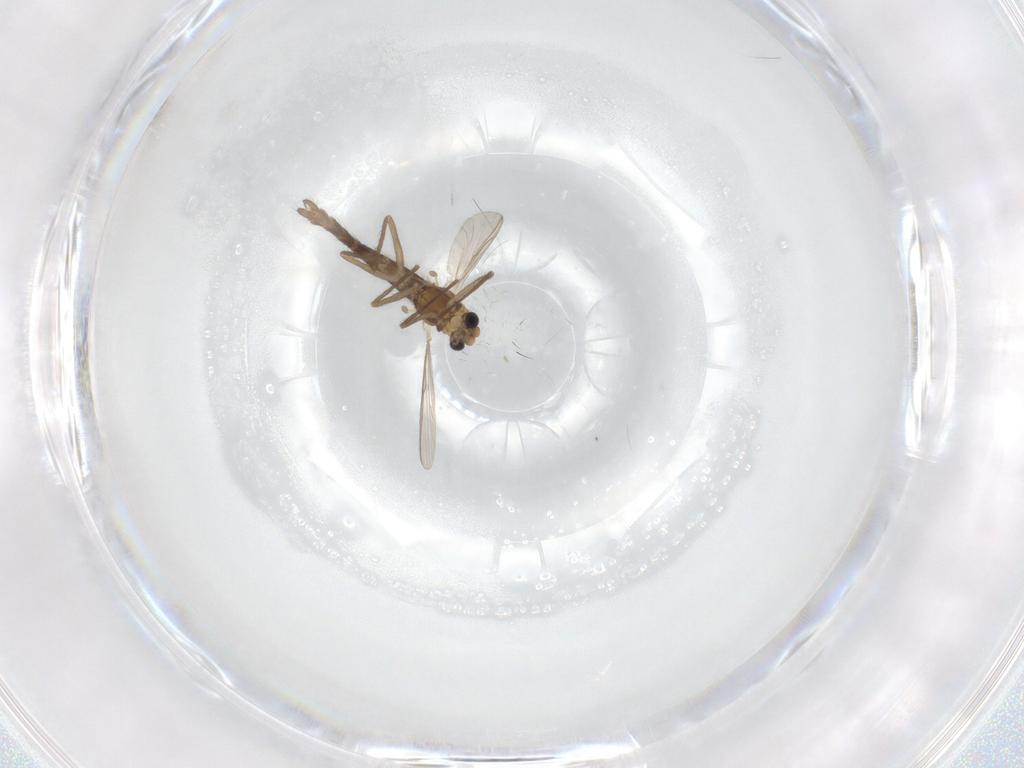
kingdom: Animalia
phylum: Arthropoda
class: Insecta
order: Diptera
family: Chironomidae
